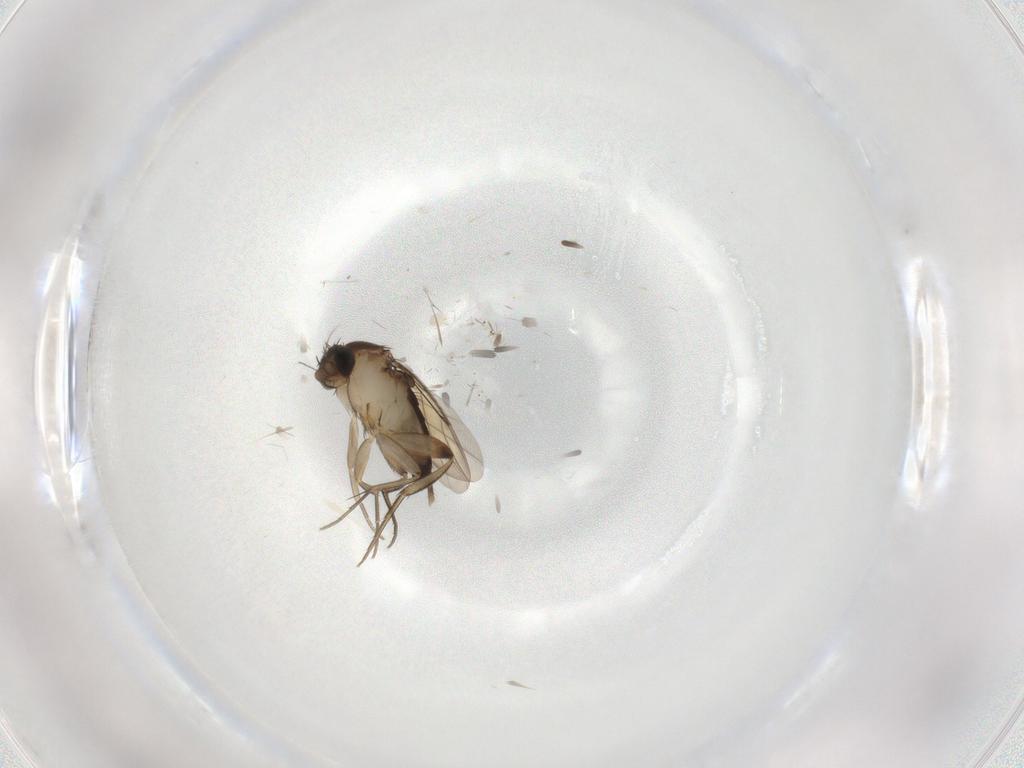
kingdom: Animalia
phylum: Arthropoda
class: Insecta
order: Diptera
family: Phoridae
